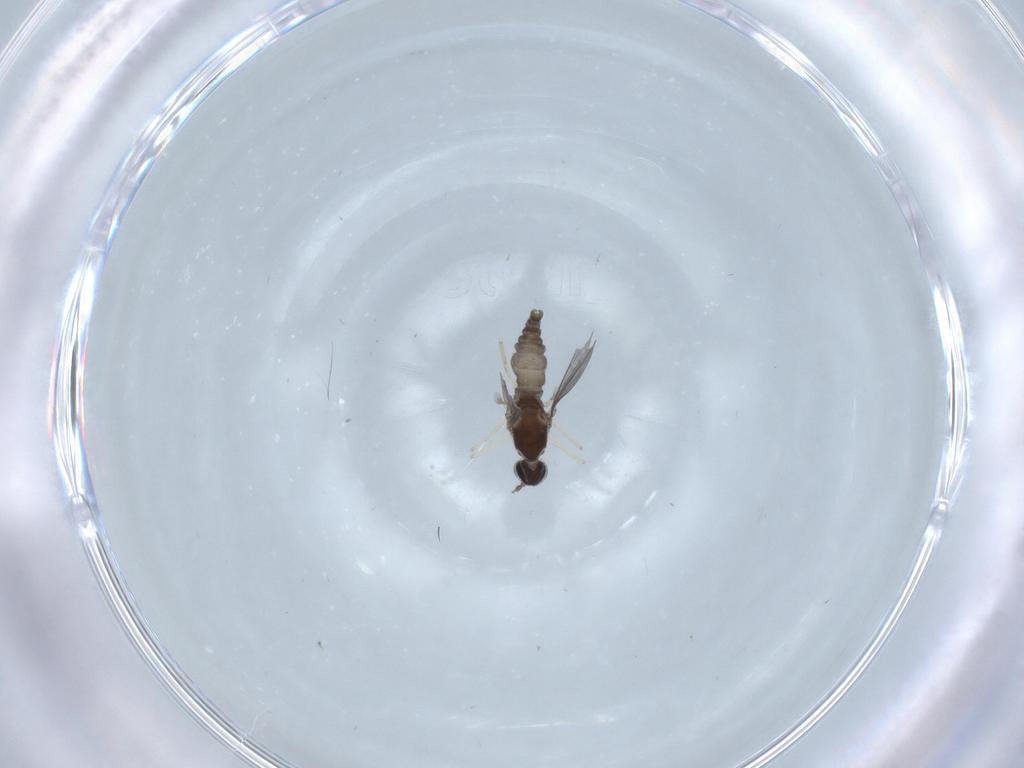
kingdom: Animalia
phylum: Arthropoda
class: Insecta
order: Diptera
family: Cecidomyiidae
